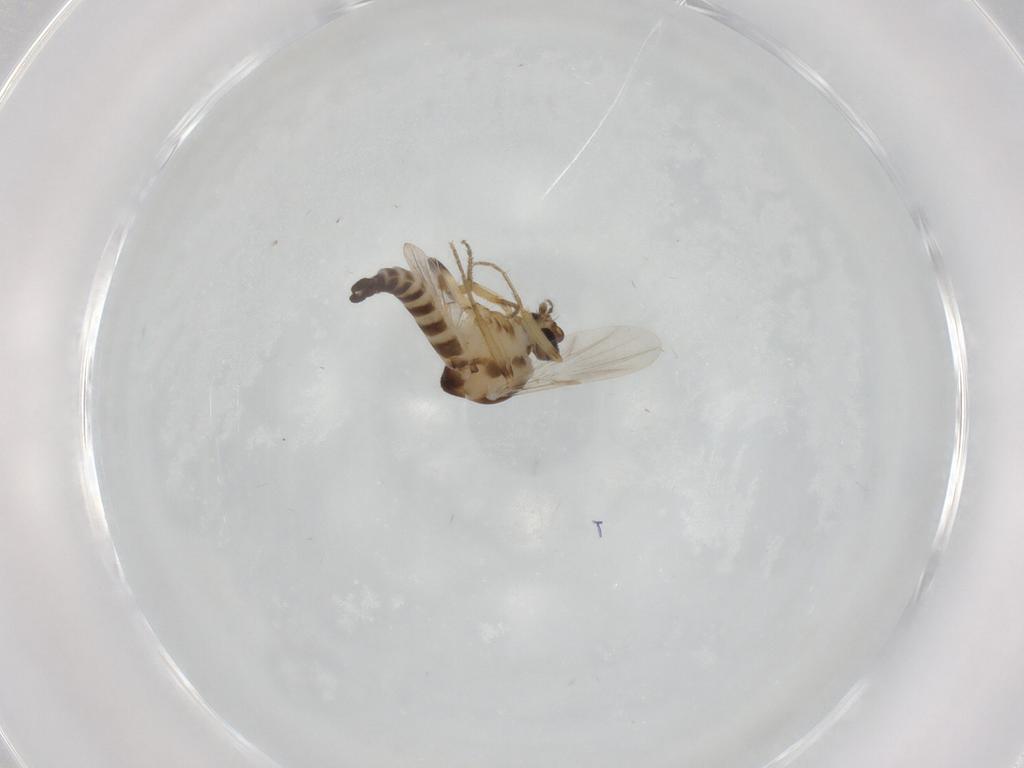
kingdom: Animalia
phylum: Arthropoda
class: Insecta
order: Diptera
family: Ceratopogonidae
